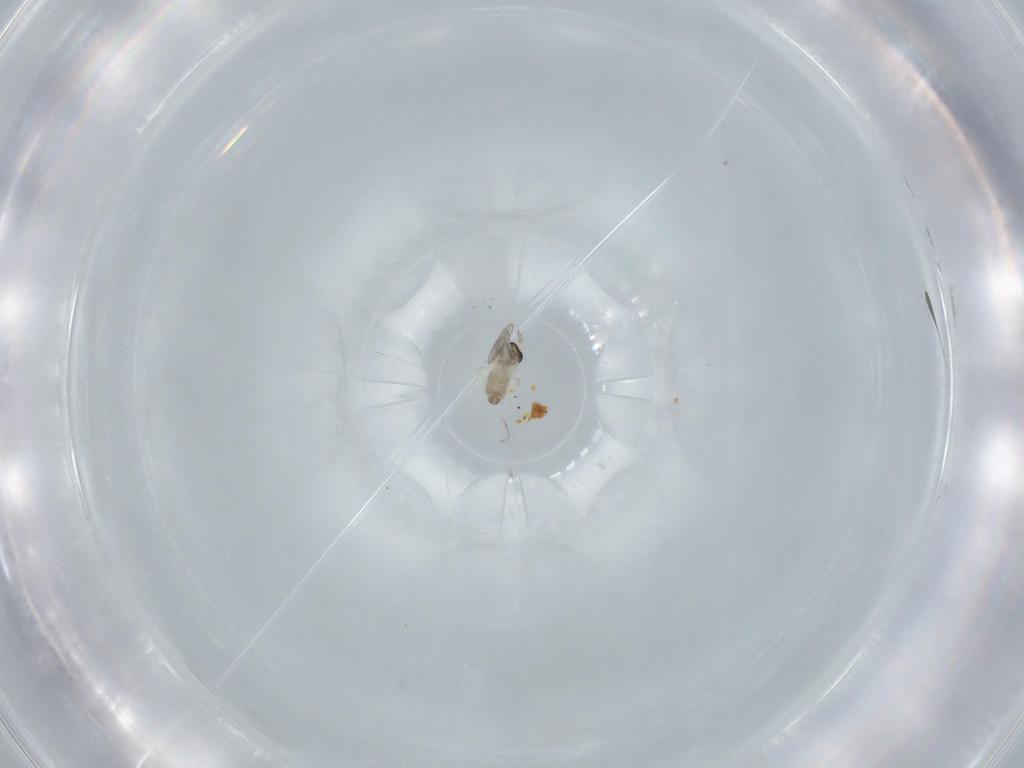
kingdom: Animalia
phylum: Arthropoda
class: Insecta
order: Diptera
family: Cecidomyiidae
